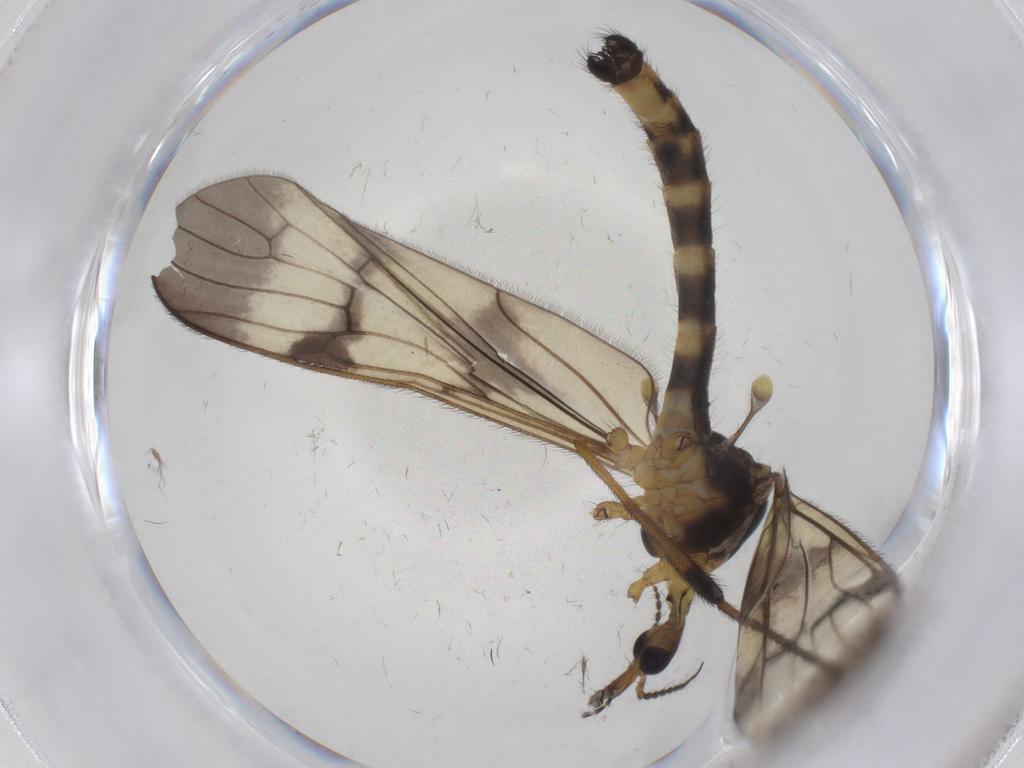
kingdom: Animalia
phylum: Arthropoda
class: Insecta
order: Diptera
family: Limoniidae
